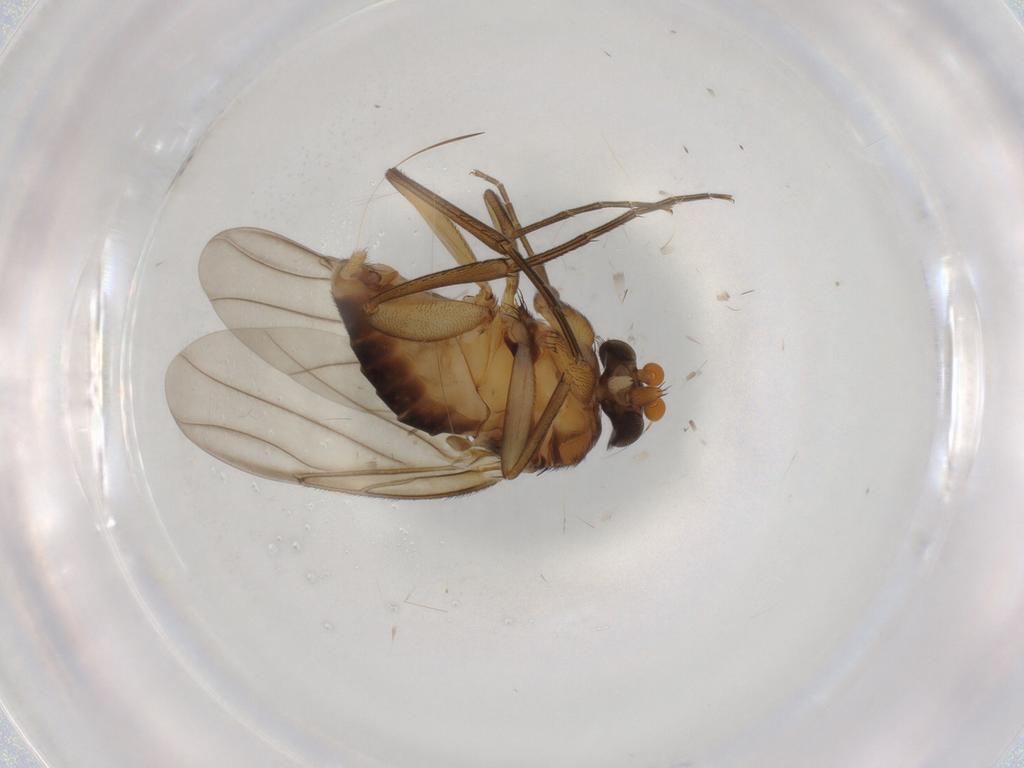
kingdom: Animalia
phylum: Arthropoda
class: Insecta
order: Diptera
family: Phoridae
